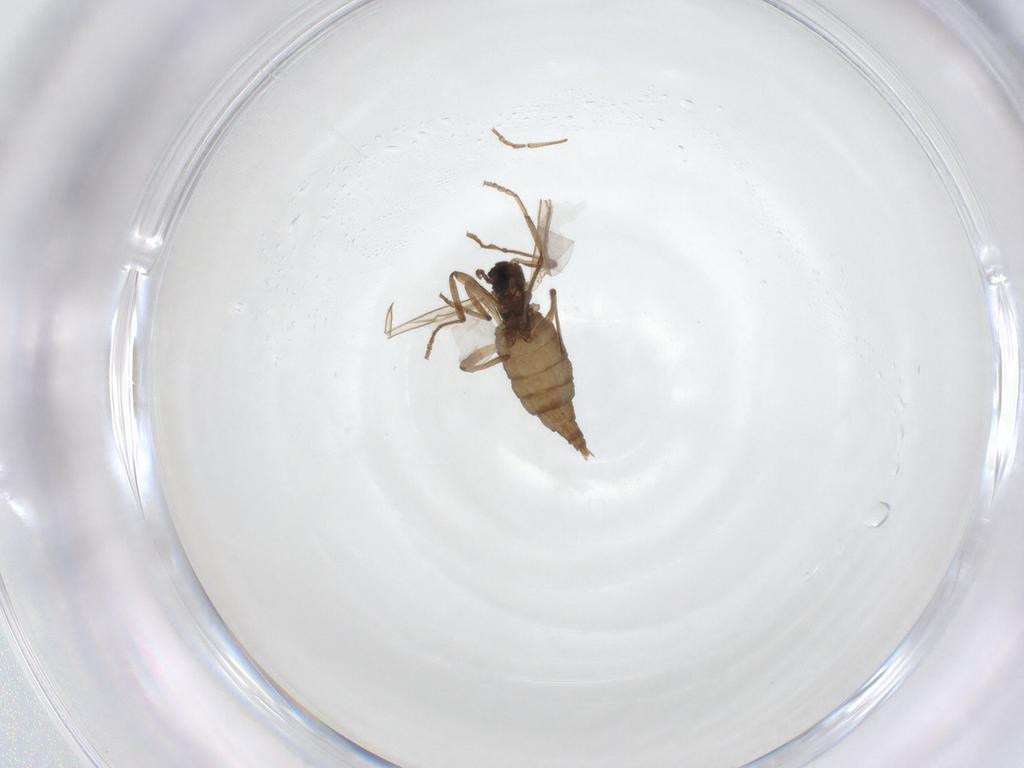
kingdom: Animalia
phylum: Arthropoda
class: Insecta
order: Diptera
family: Cecidomyiidae
